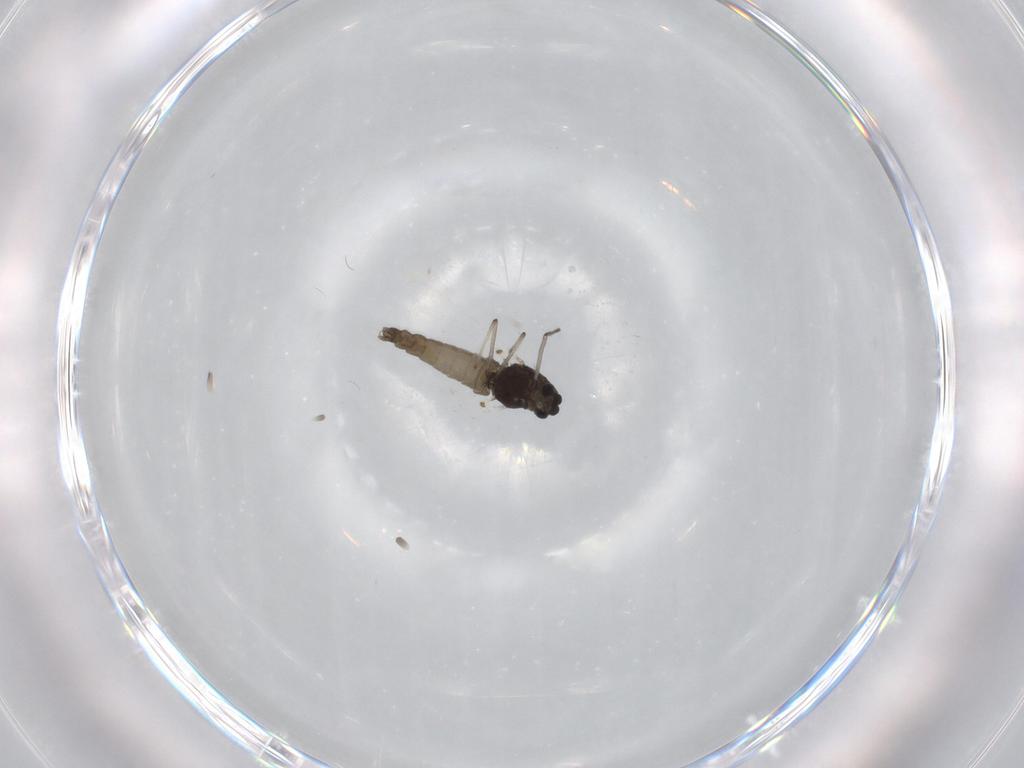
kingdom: Animalia
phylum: Arthropoda
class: Insecta
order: Diptera
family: Chironomidae
